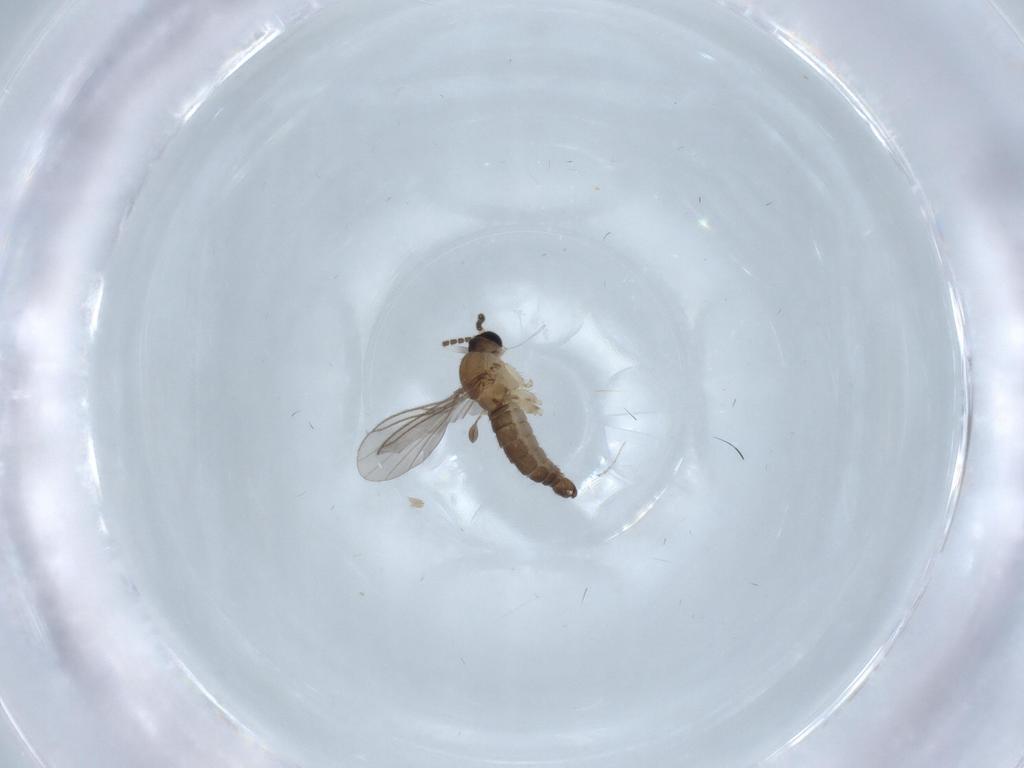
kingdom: Animalia
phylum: Arthropoda
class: Insecta
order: Diptera
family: Sciaridae
